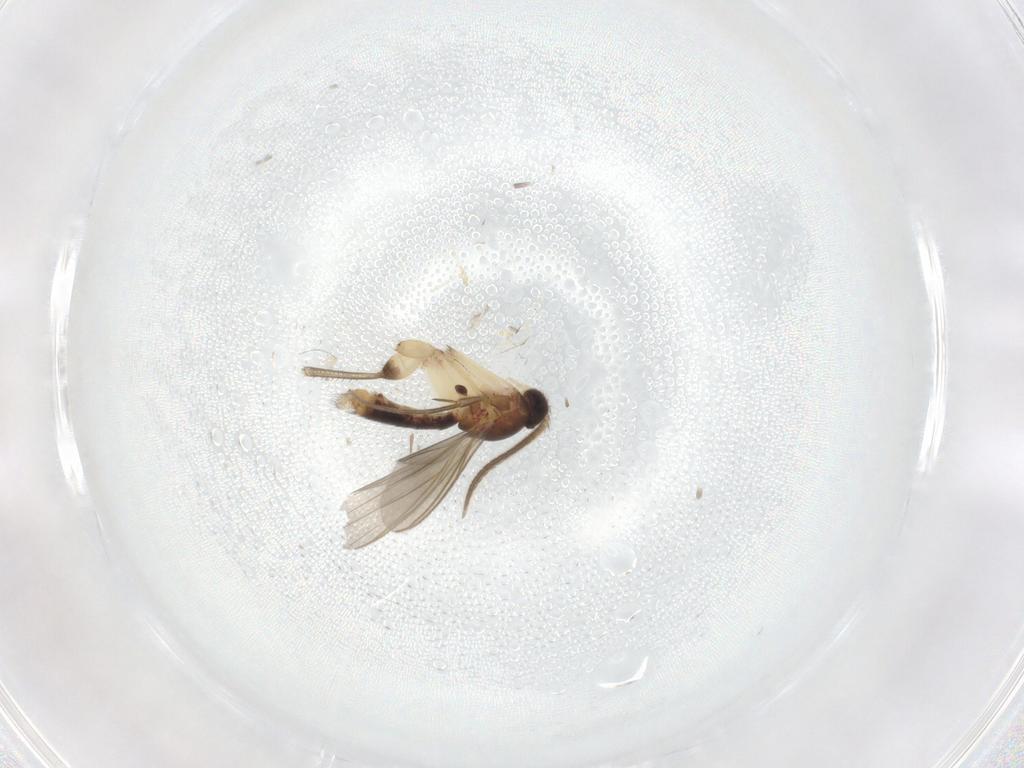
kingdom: Animalia
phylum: Arthropoda
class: Insecta
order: Diptera
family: Mycetophilidae
